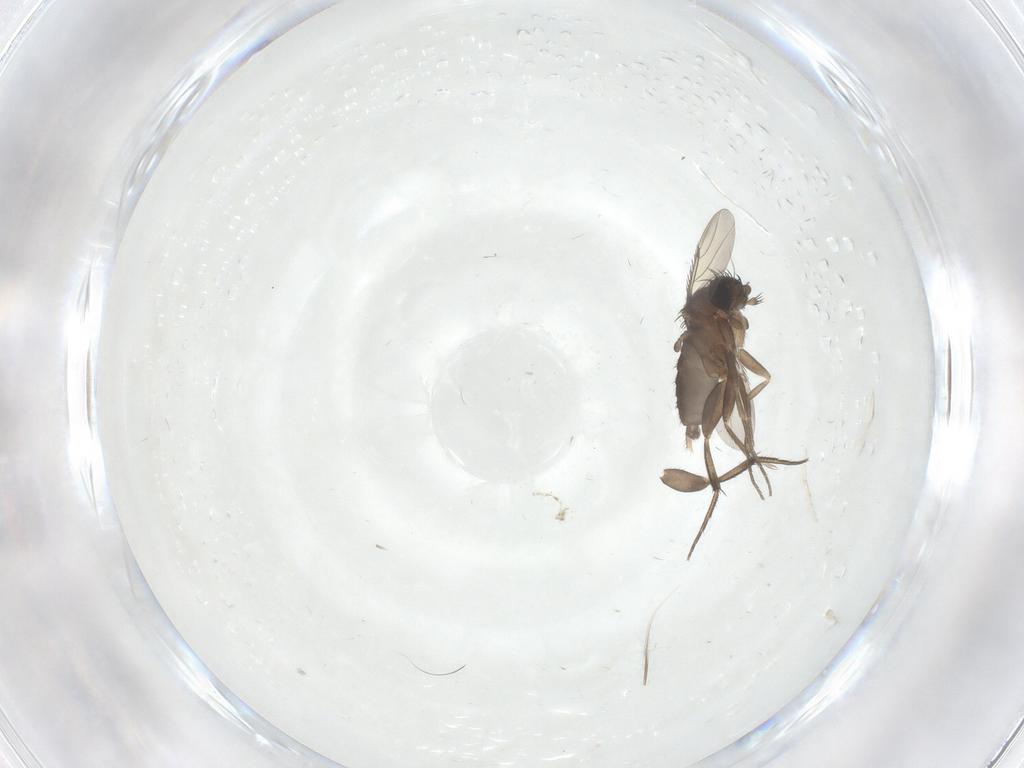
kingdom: Animalia
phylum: Arthropoda
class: Insecta
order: Diptera
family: Phoridae
